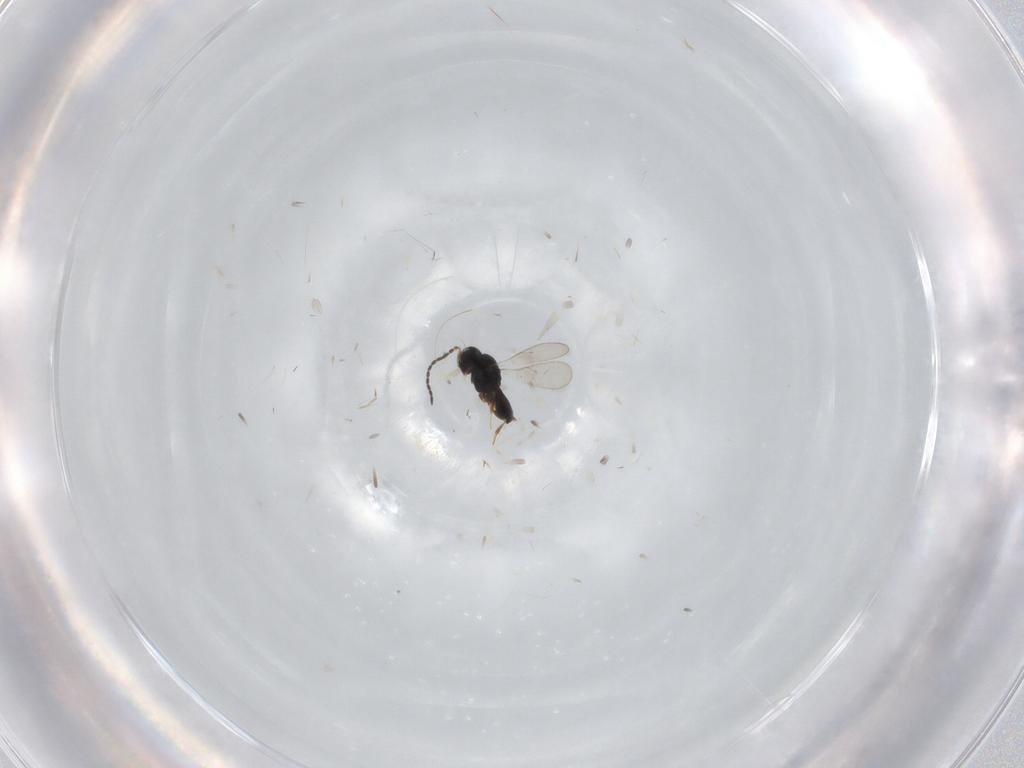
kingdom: Animalia
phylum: Arthropoda
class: Insecta
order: Hymenoptera
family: Scelionidae
